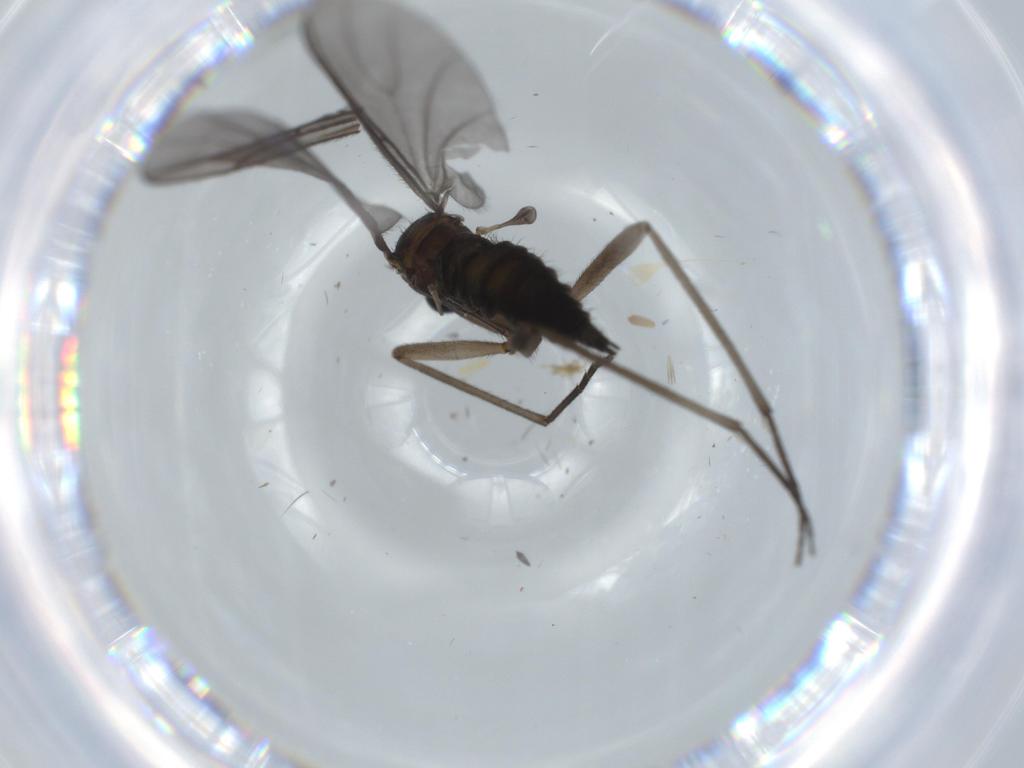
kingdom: Animalia
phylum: Arthropoda
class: Insecta
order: Diptera
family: Sciaridae
